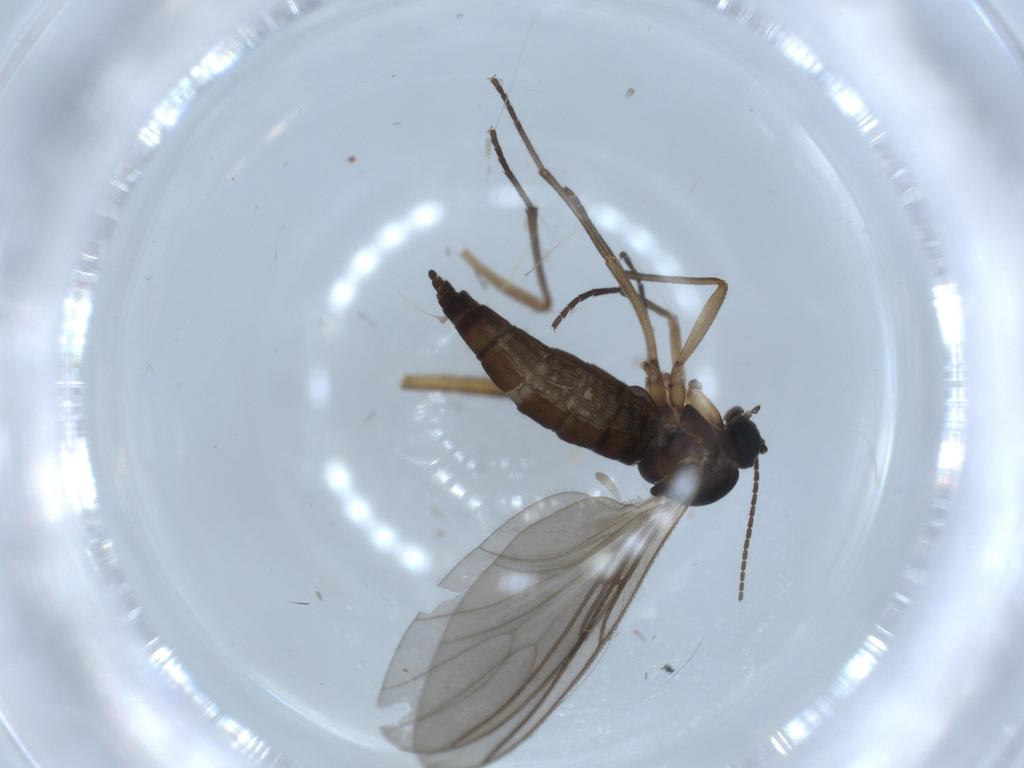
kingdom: Animalia
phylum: Arthropoda
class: Insecta
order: Diptera
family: Sciaridae
